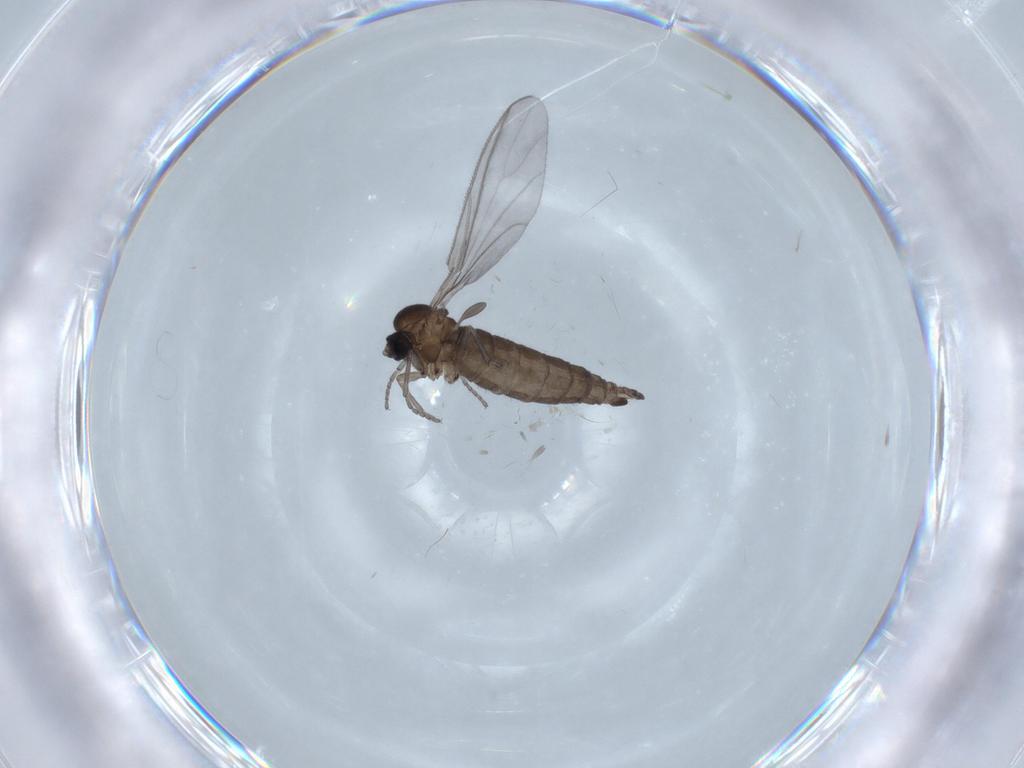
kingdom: Animalia
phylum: Arthropoda
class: Insecta
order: Diptera
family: Sciaridae
